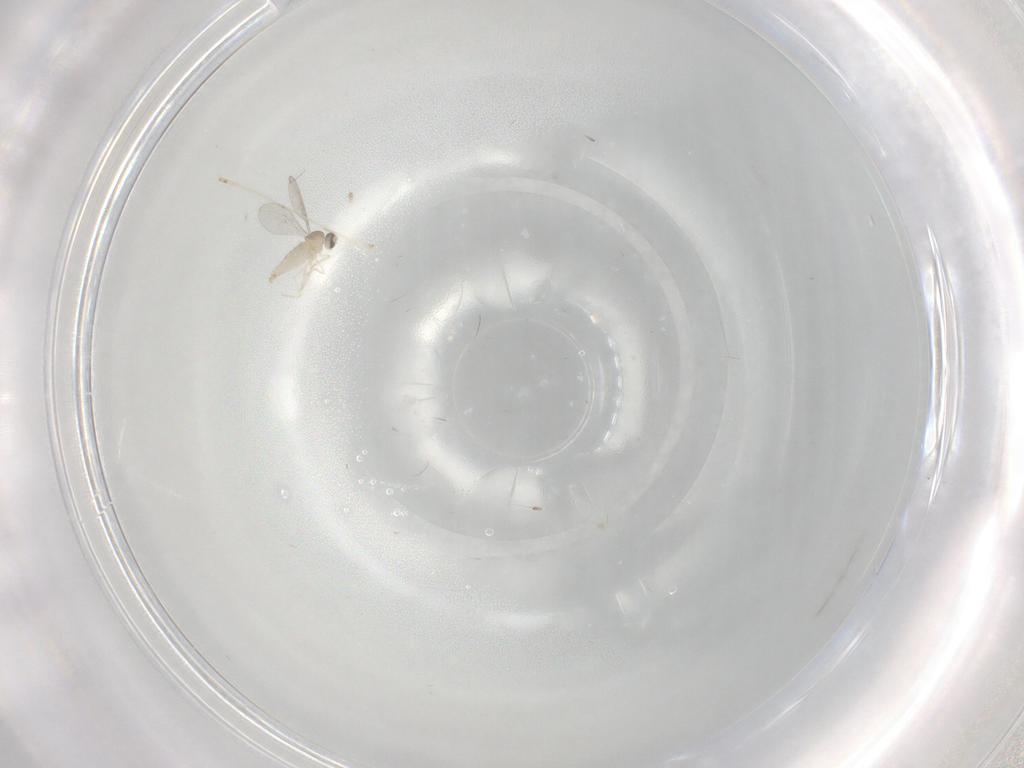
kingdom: Animalia
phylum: Arthropoda
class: Insecta
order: Diptera
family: Cecidomyiidae
